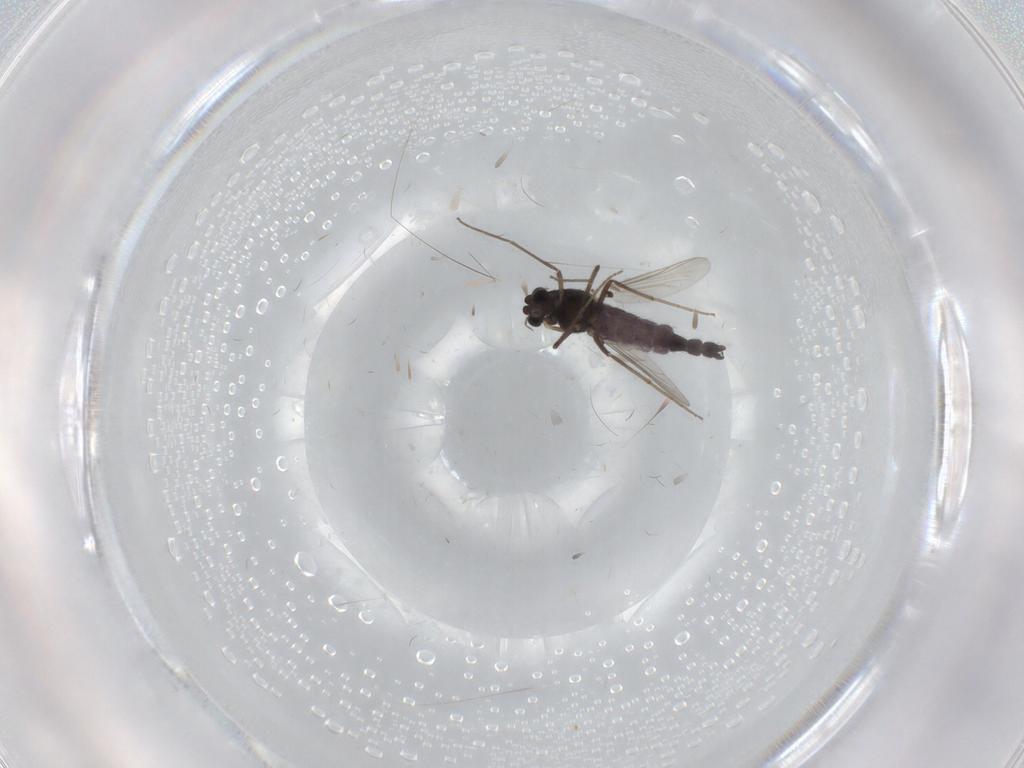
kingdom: Animalia
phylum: Arthropoda
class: Insecta
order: Diptera
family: Chironomidae
